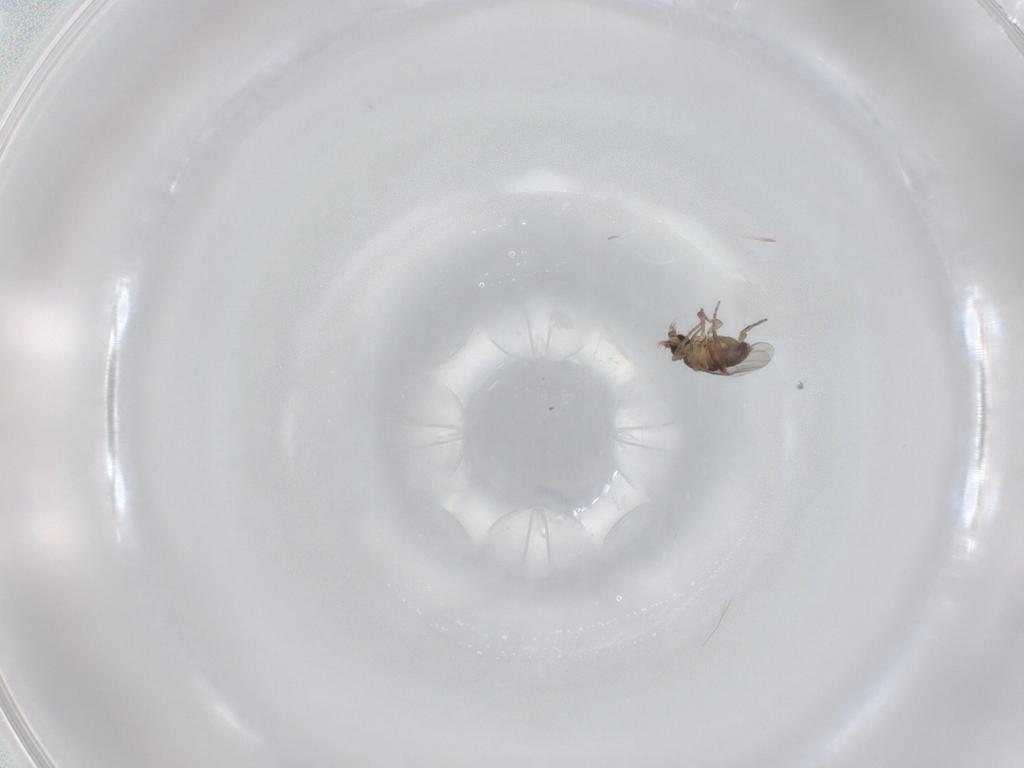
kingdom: Animalia
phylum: Arthropoda
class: Insecta
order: Diptera
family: Phoridae
